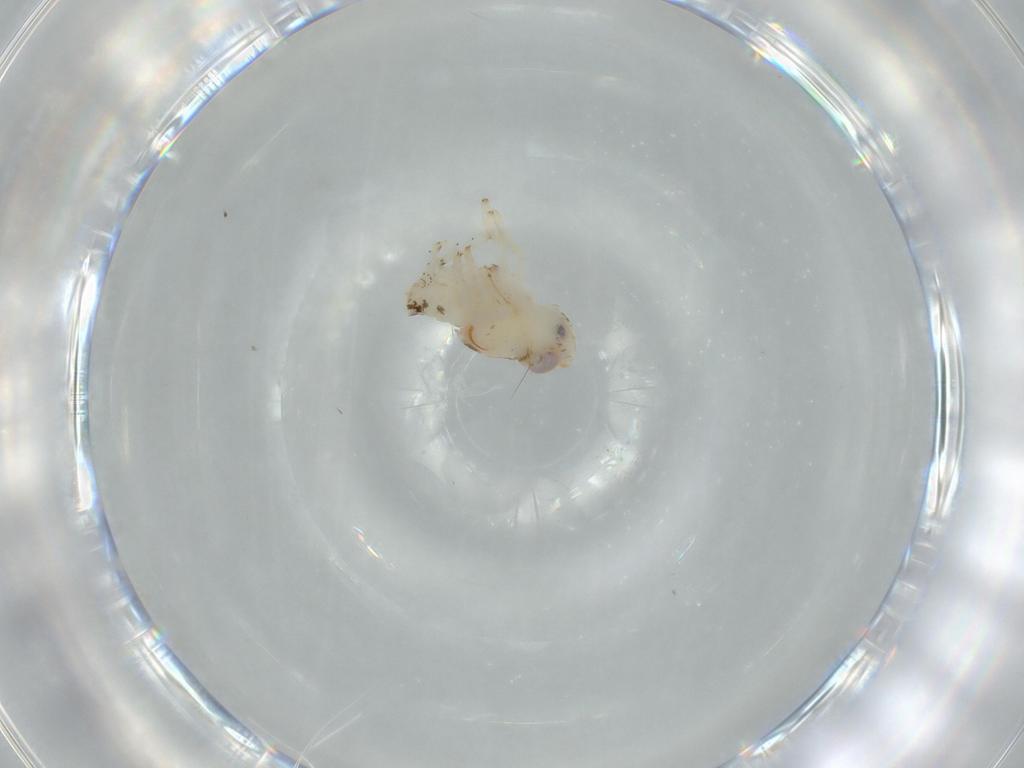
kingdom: Animalia
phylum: Arthropoda
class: Insecta
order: Hemiptera
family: Nogodinidae
